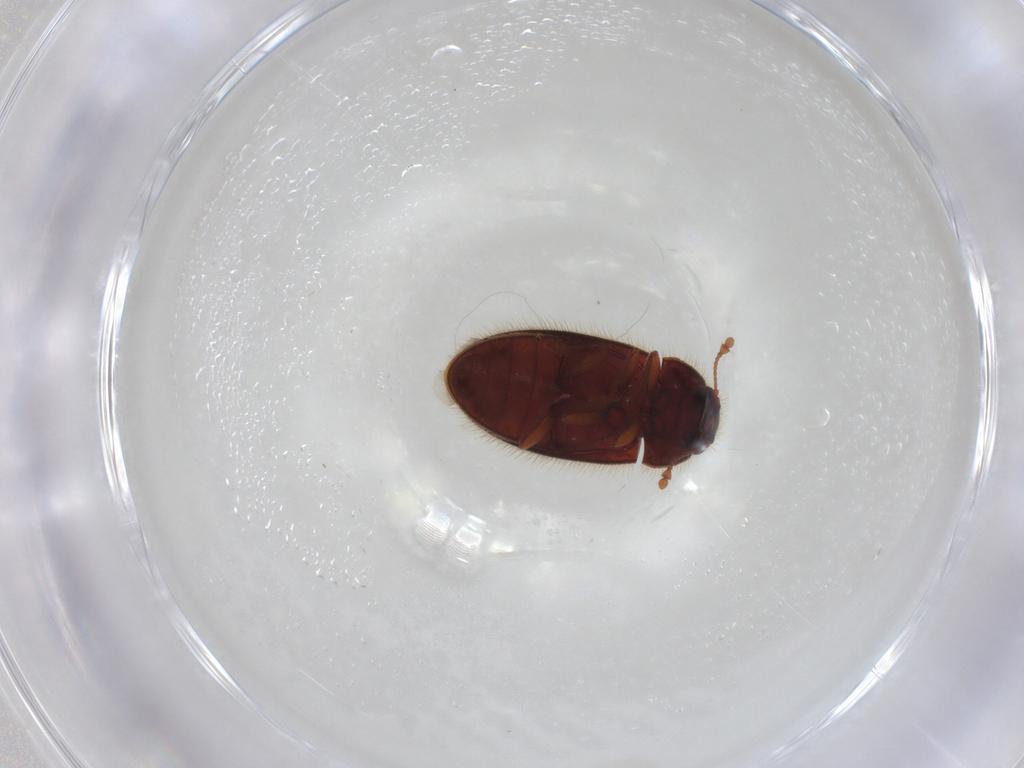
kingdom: Animalia
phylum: Arthropoda
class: Insecta
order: Coleoptera
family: Biphyllidae
